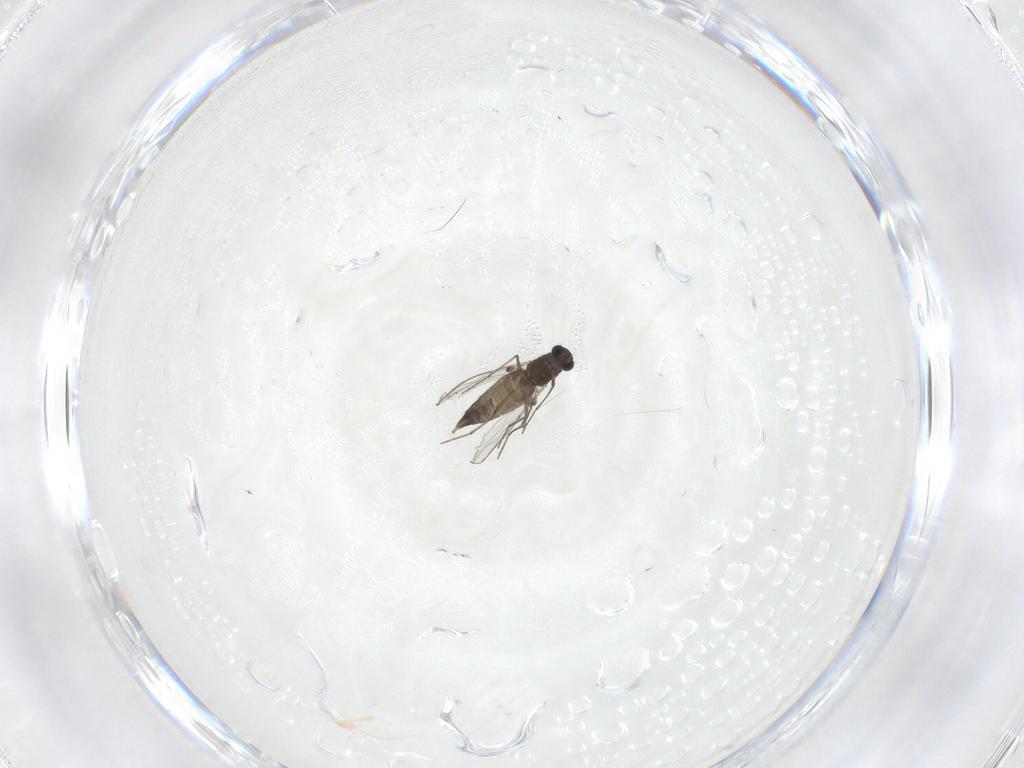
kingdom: Animalia
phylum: Arthropoda
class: Insecta
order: Diptera
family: Chironomidae
